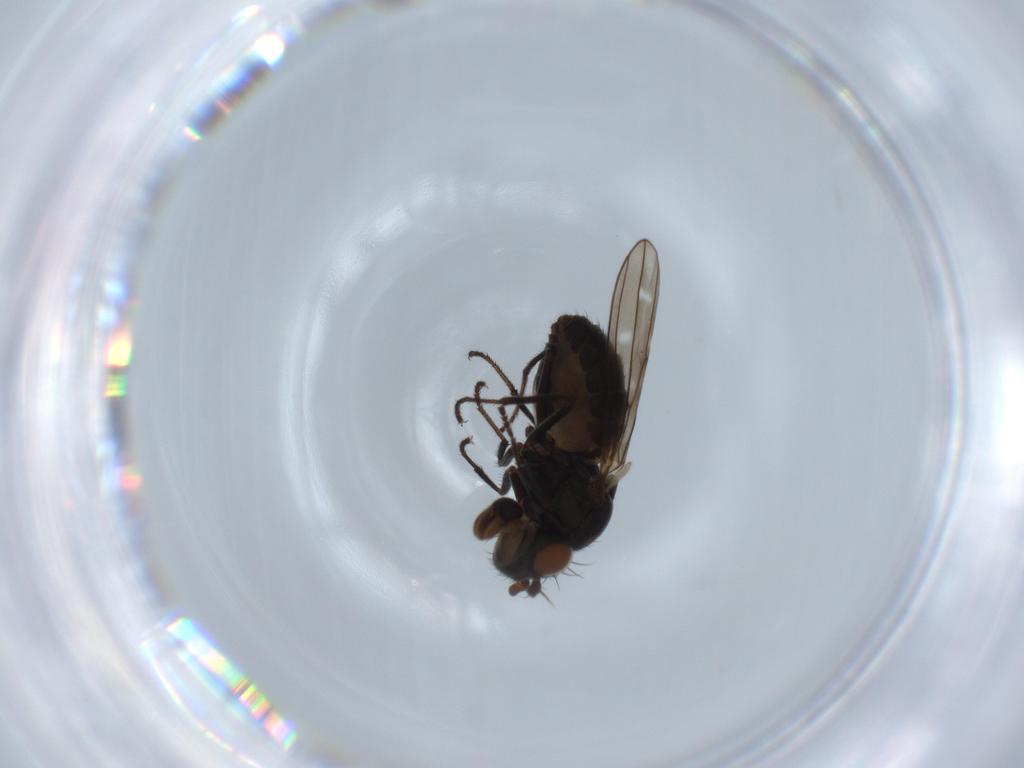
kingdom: Animalia
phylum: Arthropoda
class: Insecta
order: Diptera
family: Ephydridae
